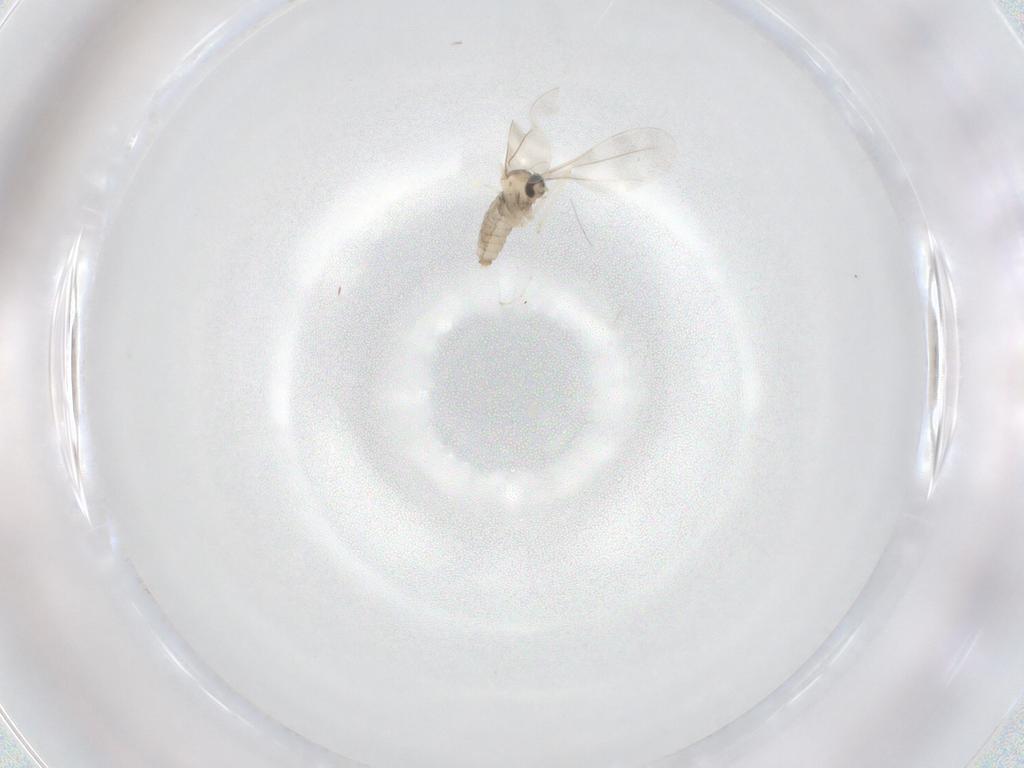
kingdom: Animalia
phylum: Arthropoda
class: Insecta
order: Diptera
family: Cecidomyiidae
